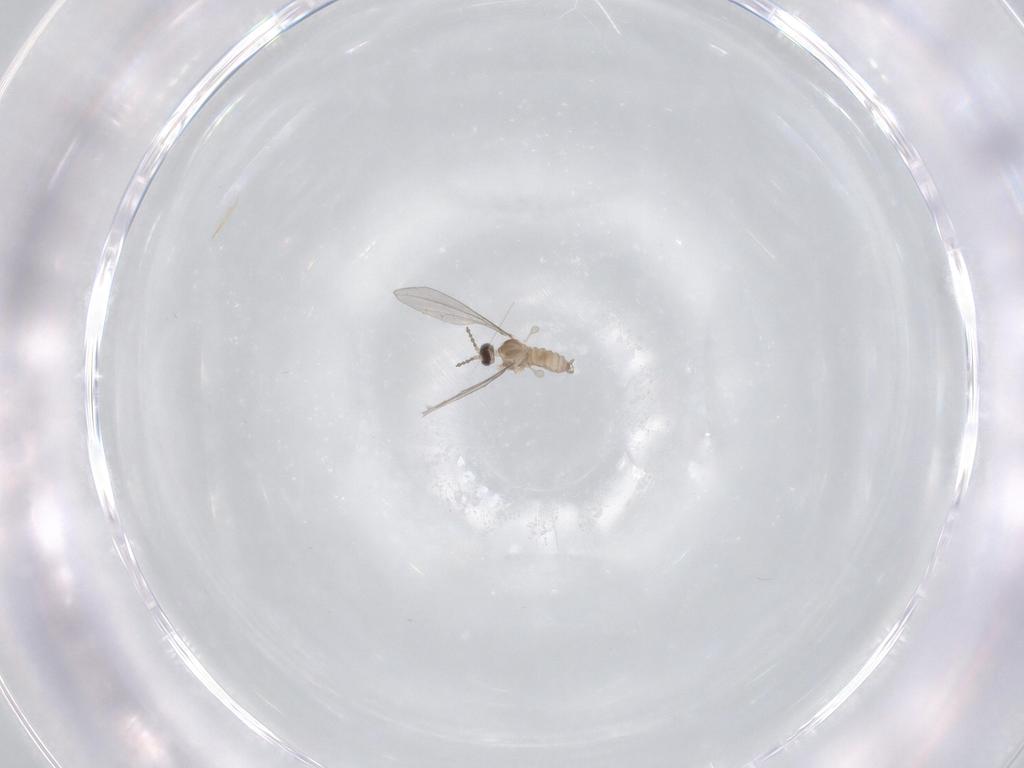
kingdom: Animalia
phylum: Arthropoda
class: Insecta
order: Diptera
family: Cecidomyiidae
